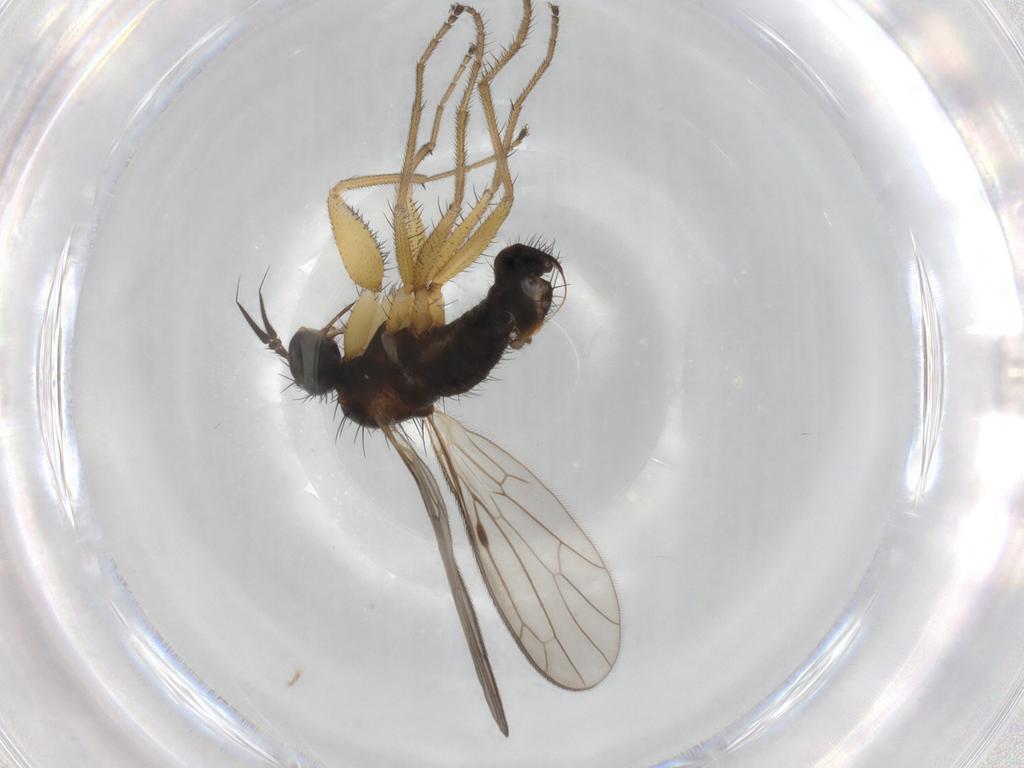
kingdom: Animalia
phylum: Arthropoda
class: Insecta
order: Diptera
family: Empididae
